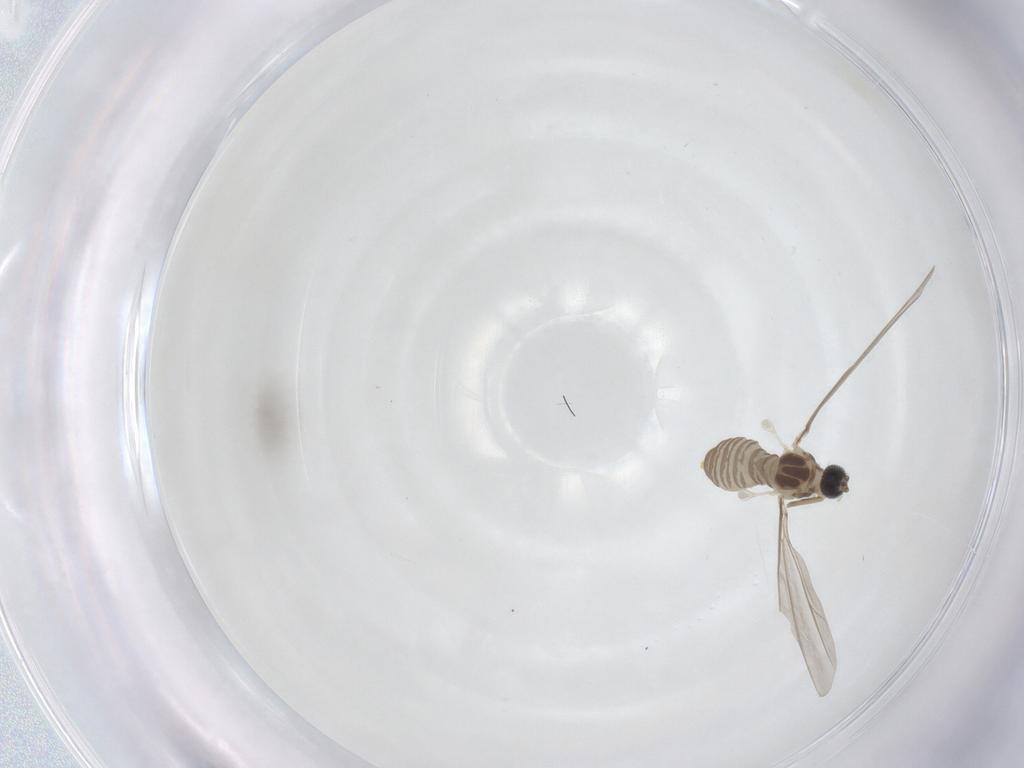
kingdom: Animalia
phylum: Arthropoda
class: Insecta
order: Diptera
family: Cecidomyiidae
